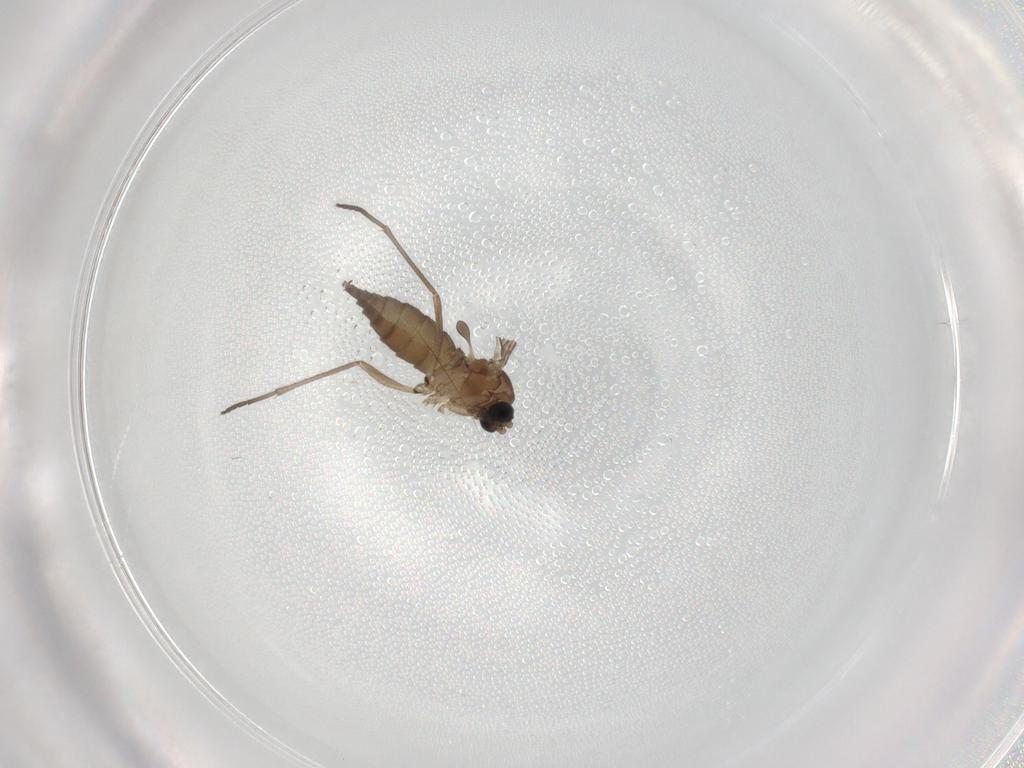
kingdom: Animalia
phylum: Arthropoda
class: Insecta
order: Diptera
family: Sciaridae
